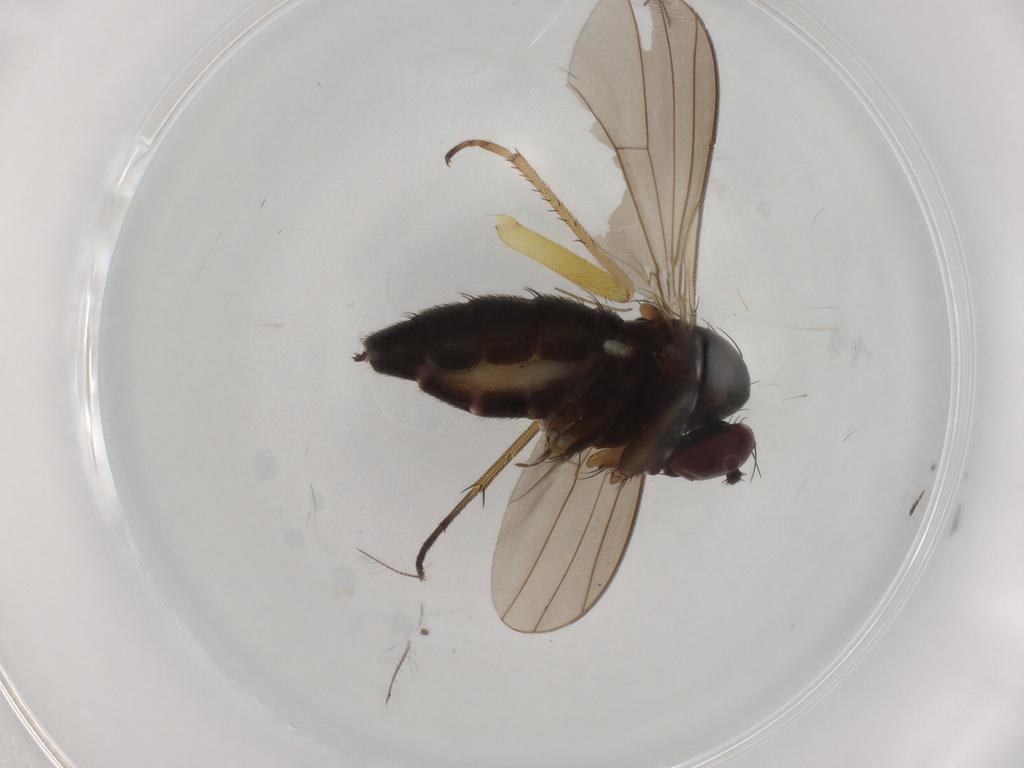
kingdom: Animalia
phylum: Arthropoda
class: Insecta
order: Diptera
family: Dolichopodidae
